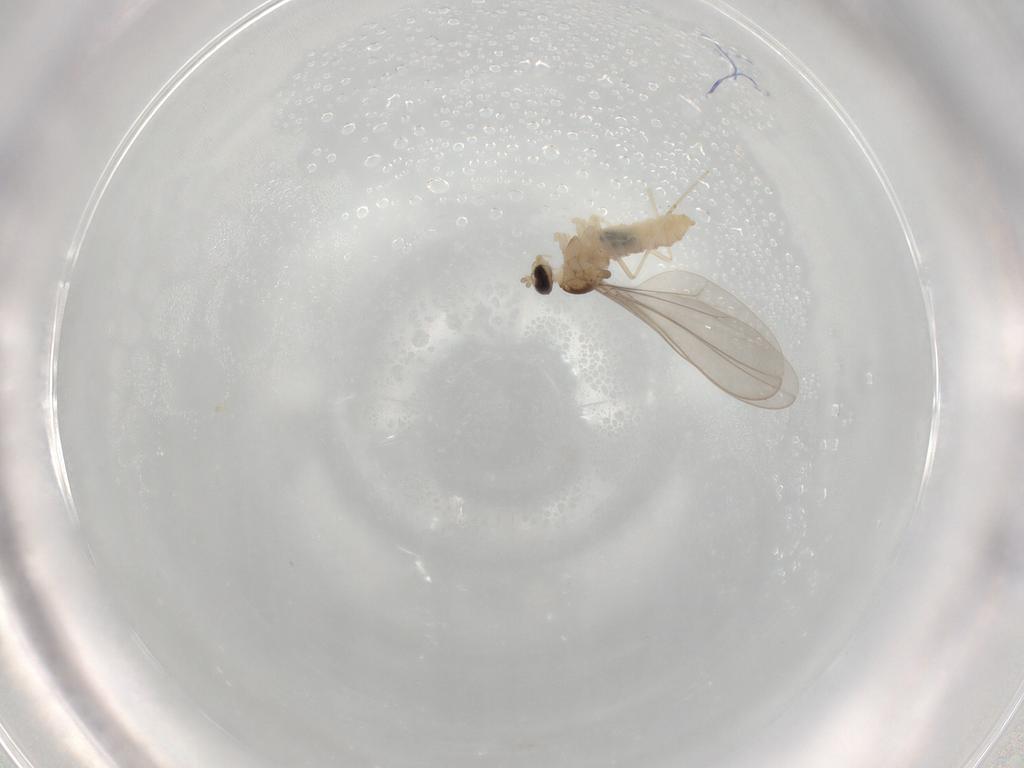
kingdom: Animalia
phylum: Arthropoda
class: Insecta
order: Diptera
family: Cecidomyiidae
